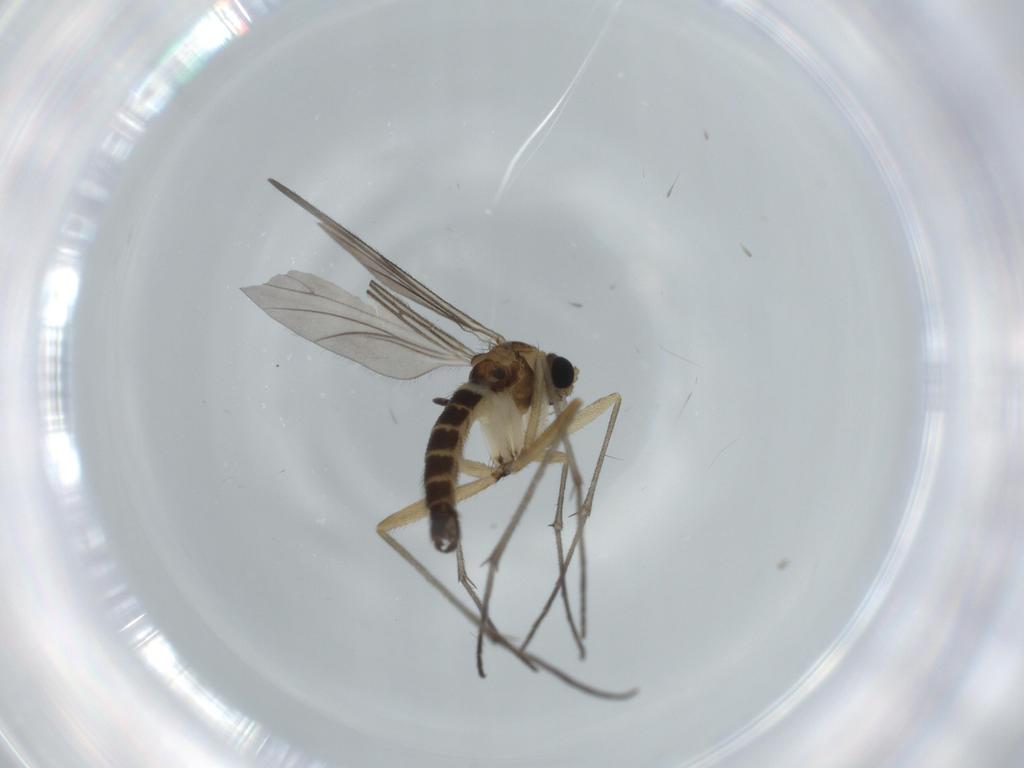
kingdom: Animalia
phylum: Arthropoda
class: Insecta
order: Diptera
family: Sciaridae
